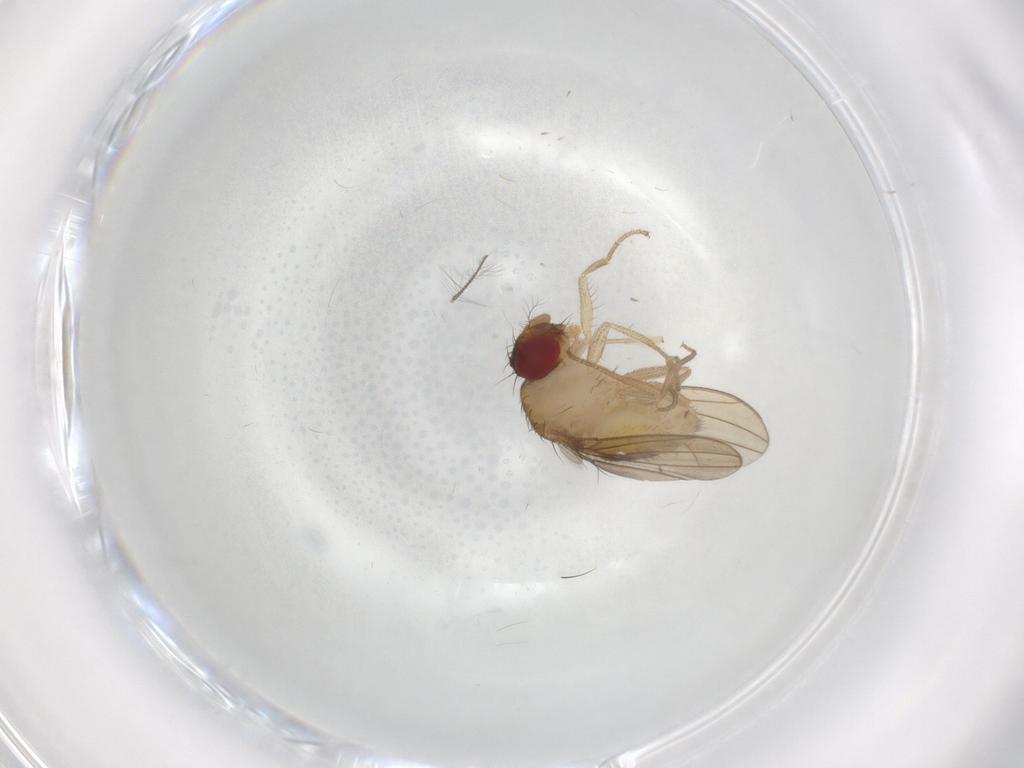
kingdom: Animalia
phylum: Arthropoda
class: Insecta
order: Diptera
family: Drosophilidae
